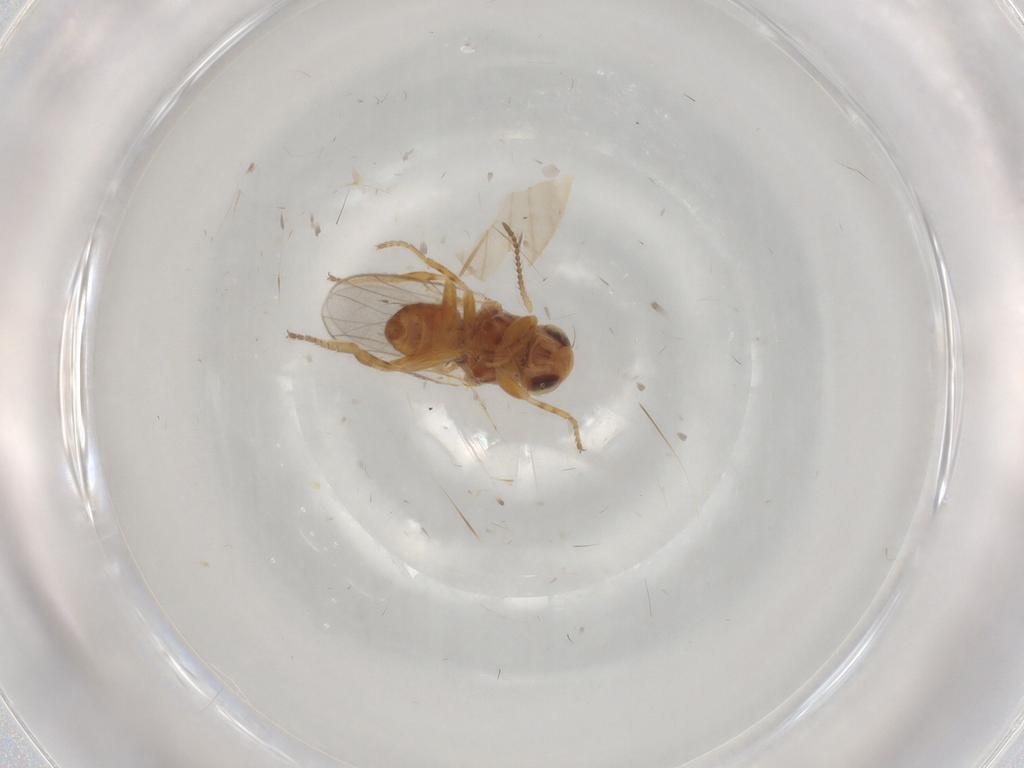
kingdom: Animalia
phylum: Arthropoda
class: Insecta
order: Diptera
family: Chloropidae
